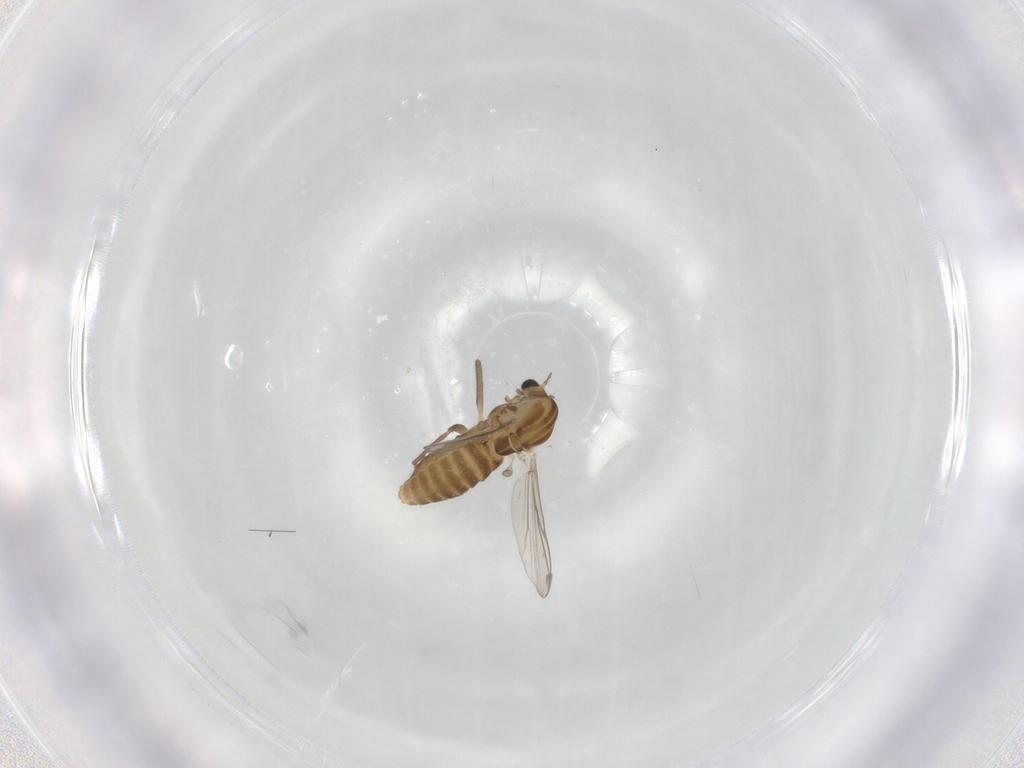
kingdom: Animalia
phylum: Arthropoda
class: Insecta
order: Diptera
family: Chironomidae
